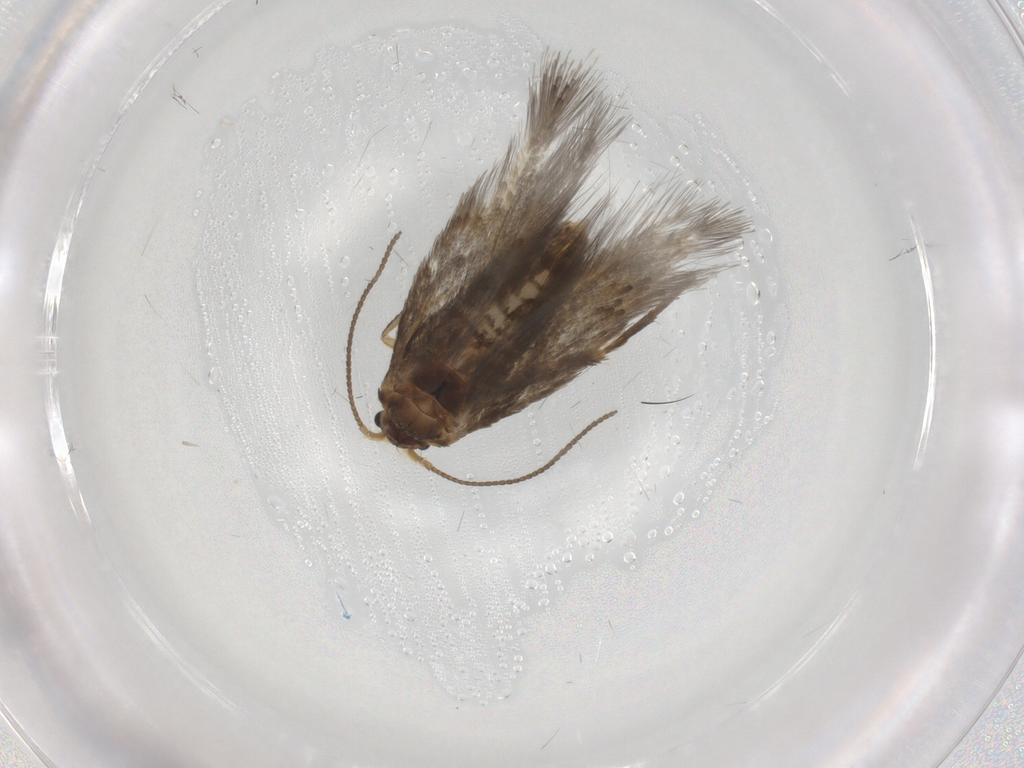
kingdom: Animalia
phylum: Arthropoda
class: Insecta
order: Lepidoptera
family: Nepticulidae
